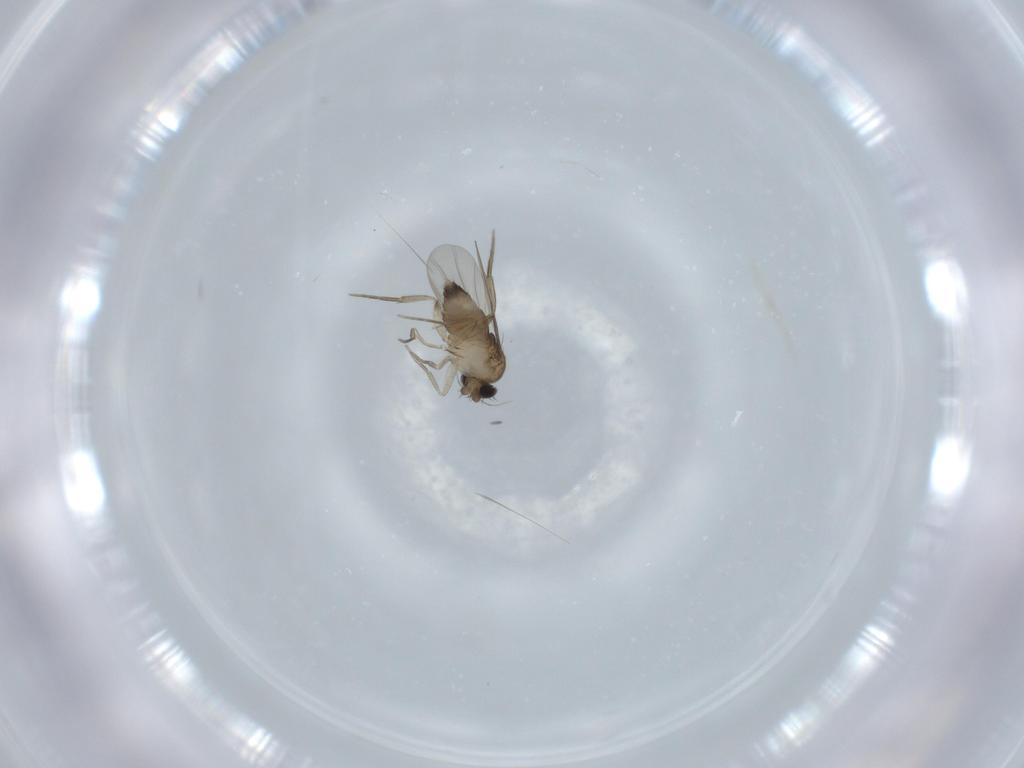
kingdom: Animalia
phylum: Arthropoda
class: Insecta
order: Diptera
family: Phoridae
